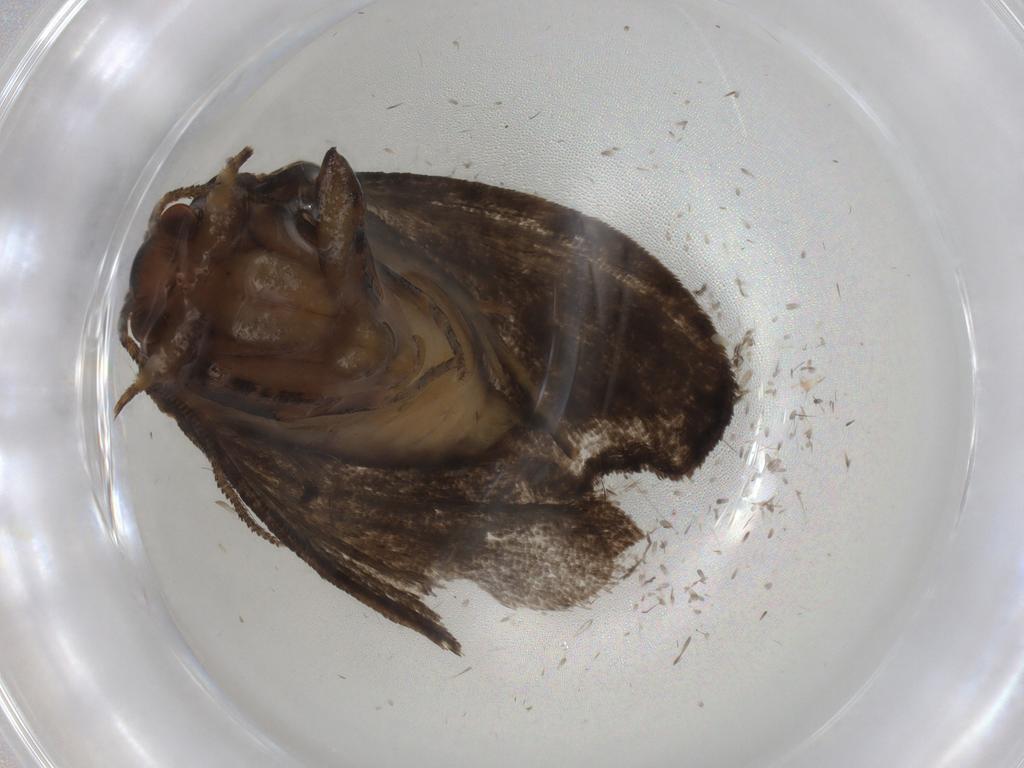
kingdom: Animalia
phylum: Arthropoda
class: Insecta
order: Lepidoptera
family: Tineidae
